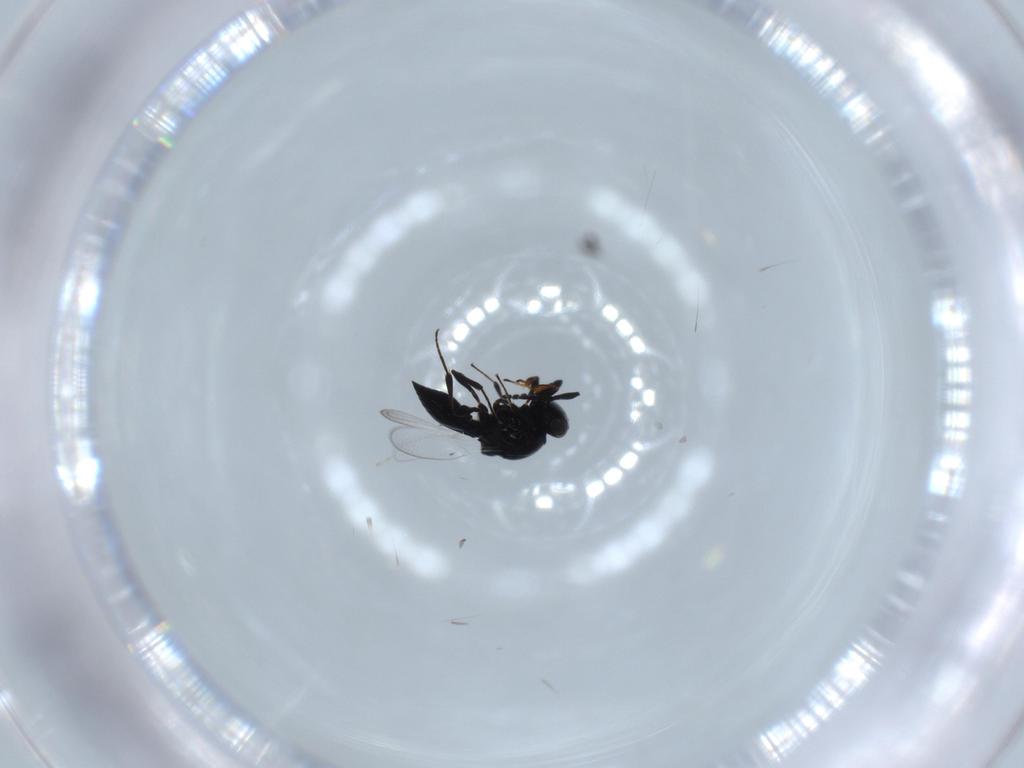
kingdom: Animalia
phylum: Arthropoda
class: Insecta
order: Hymenoptera
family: Platygastridae
